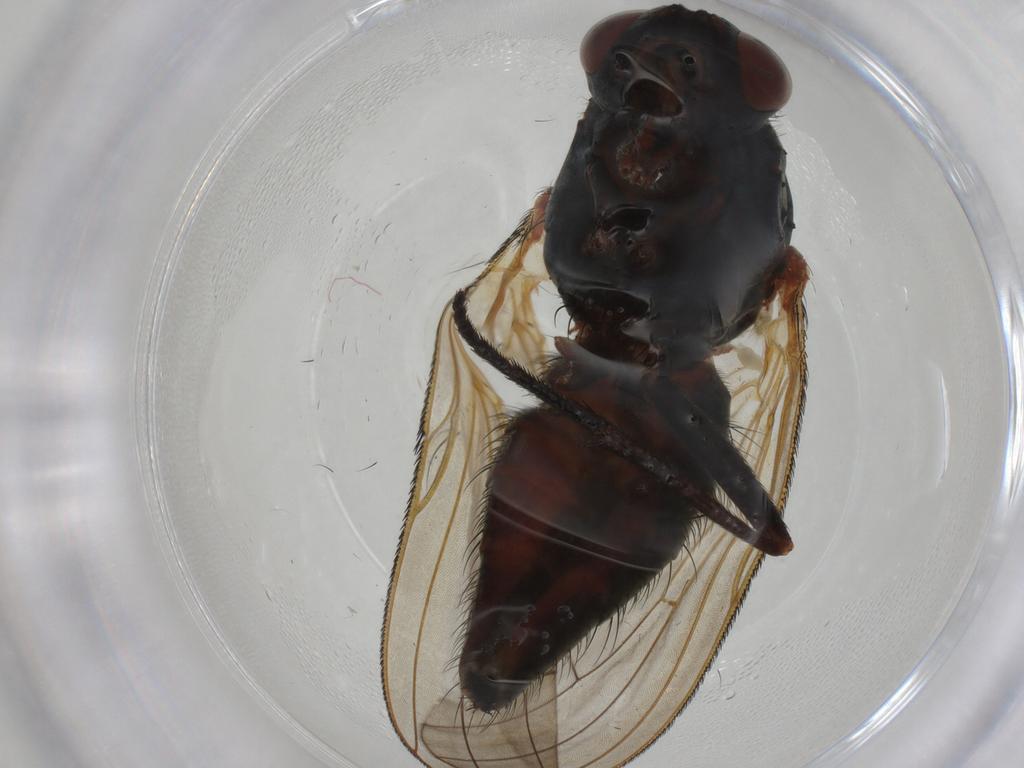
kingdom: Animalia
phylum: Arthropoda
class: Insecta
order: Diptera
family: Anthomyiidae
